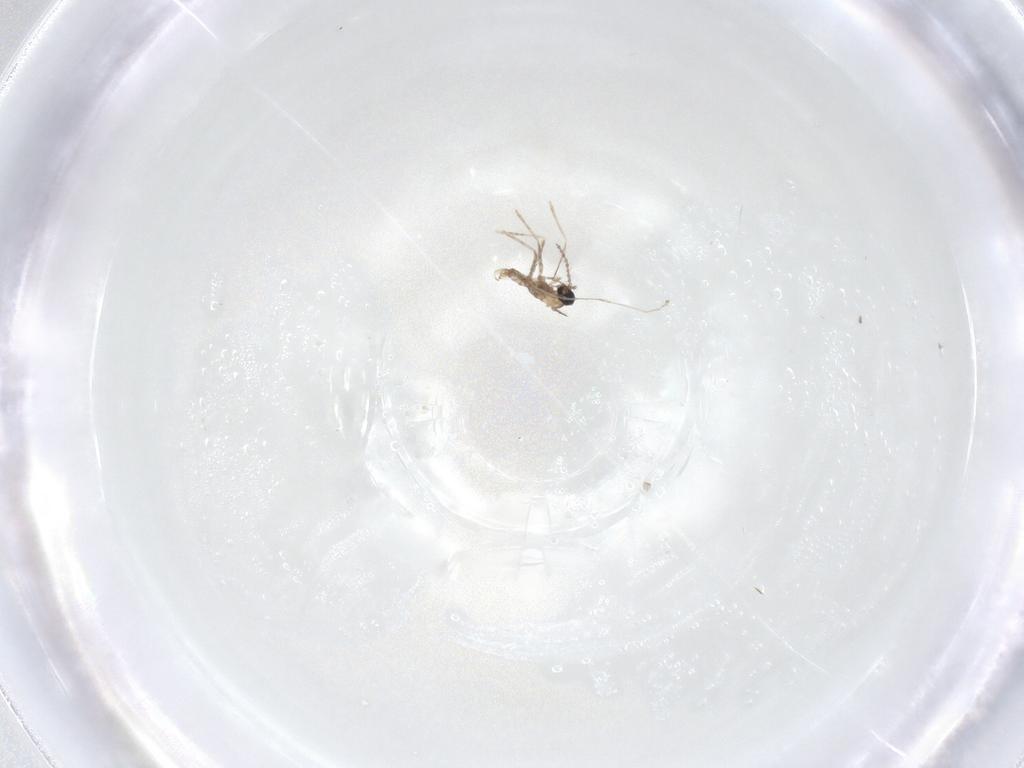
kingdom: Animalia
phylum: Arthropoda
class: Insecta
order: Diptera
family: Cecidomyiidae
